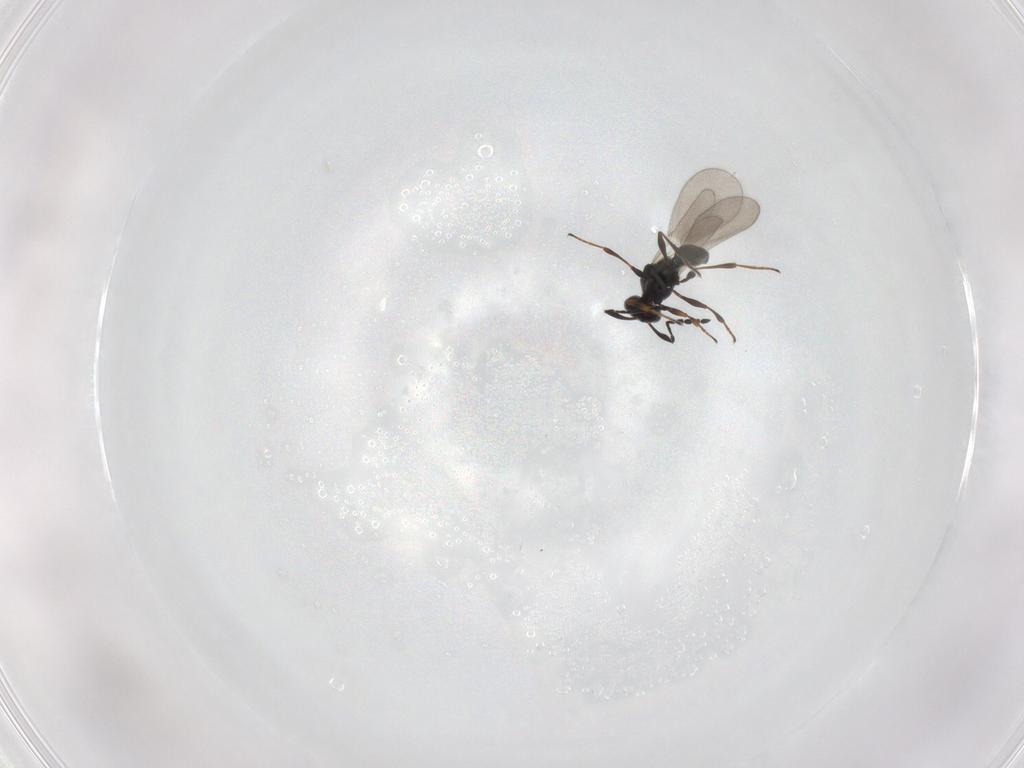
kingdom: Animalia
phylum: Arthropoda
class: Insecta
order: Hymenoptera
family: Platygastridae
